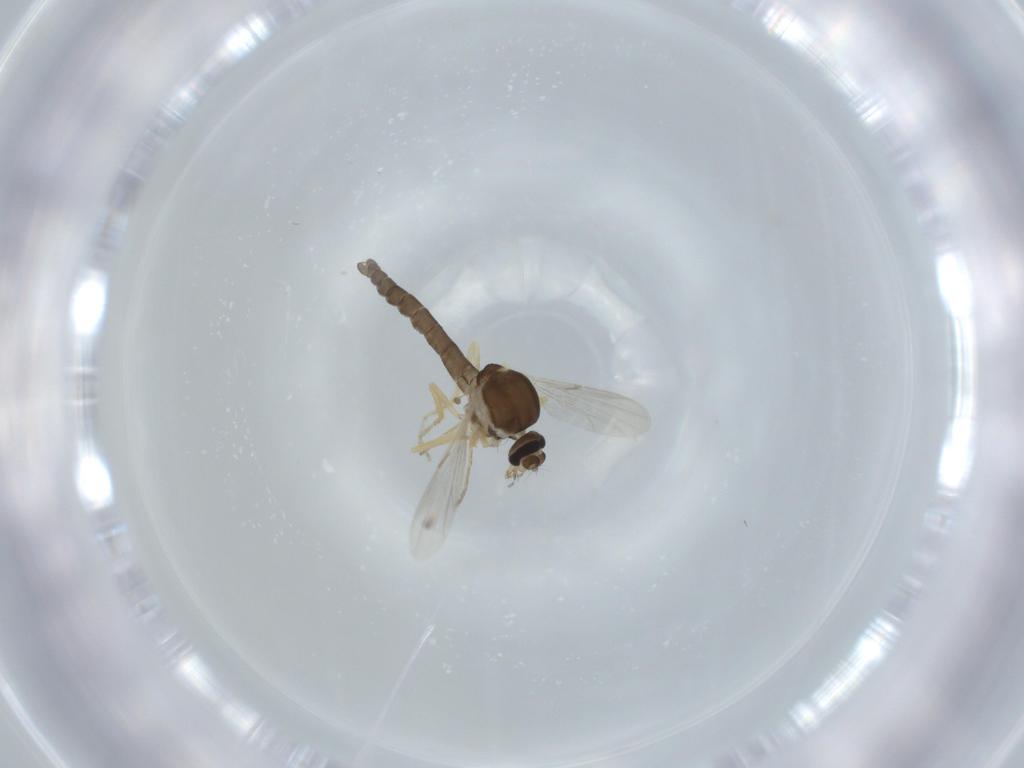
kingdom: Animalia
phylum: Arthropoda
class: Insecta
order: Diptera
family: Ceratopogonidae
